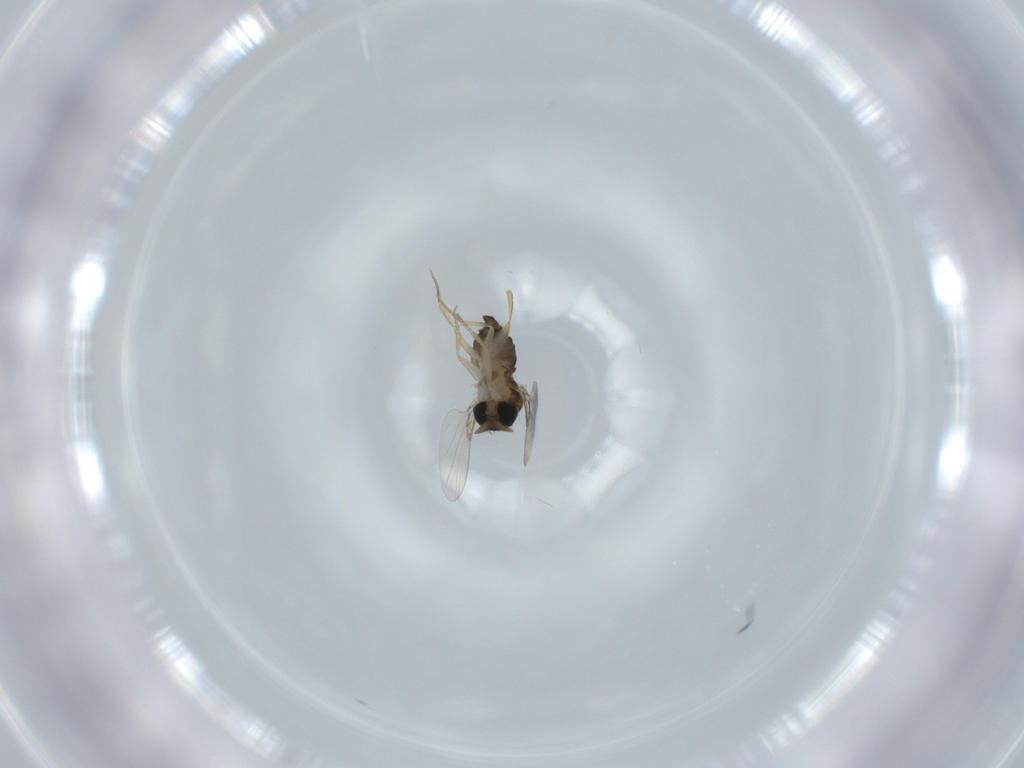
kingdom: Animalia
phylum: Arthropoda
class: Insecta
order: Diptera
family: Phoridae
